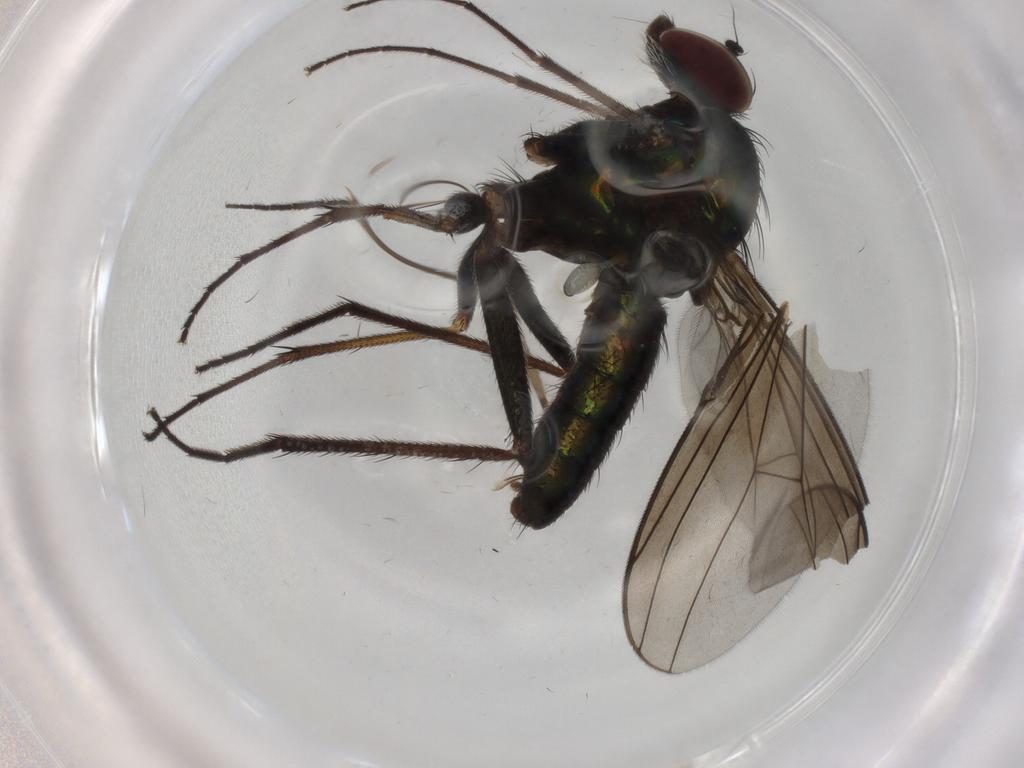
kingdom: Animalia
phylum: Arthropoda
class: Insecta
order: Diptera
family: Dolichopodidae
